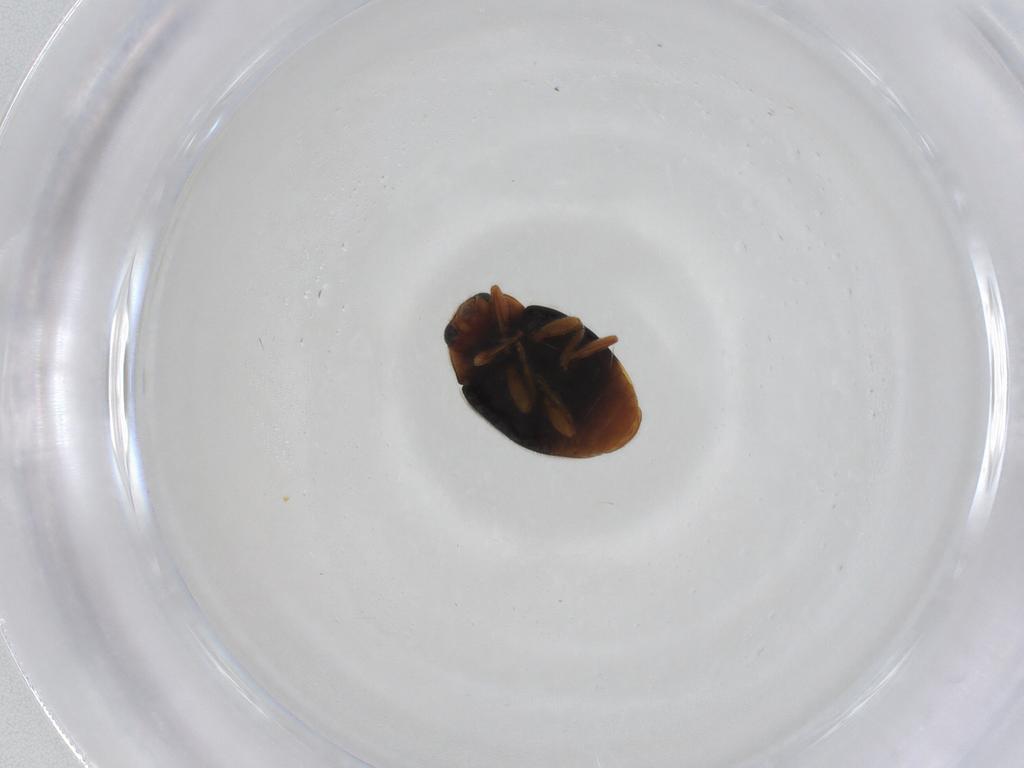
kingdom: Animalia
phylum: Arthropoda
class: Insecta
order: Coleoptera
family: Coccinellidae
